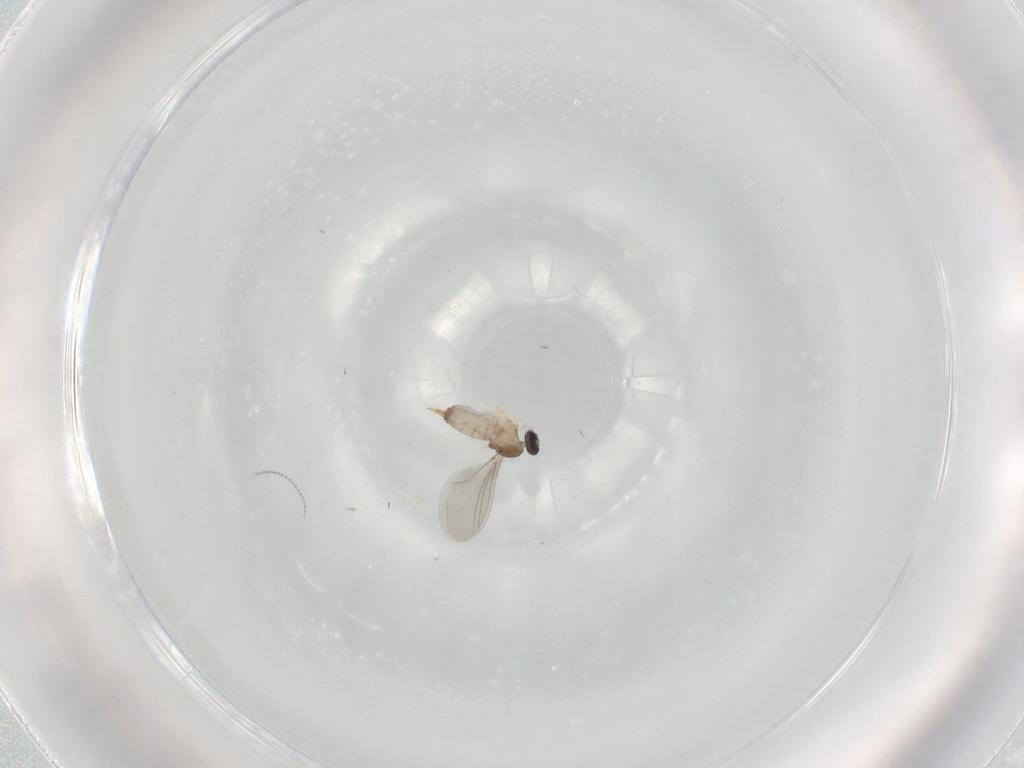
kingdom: Animalia
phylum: Arthropoda
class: Insecta
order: Diptera
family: Cecidomyiidae
